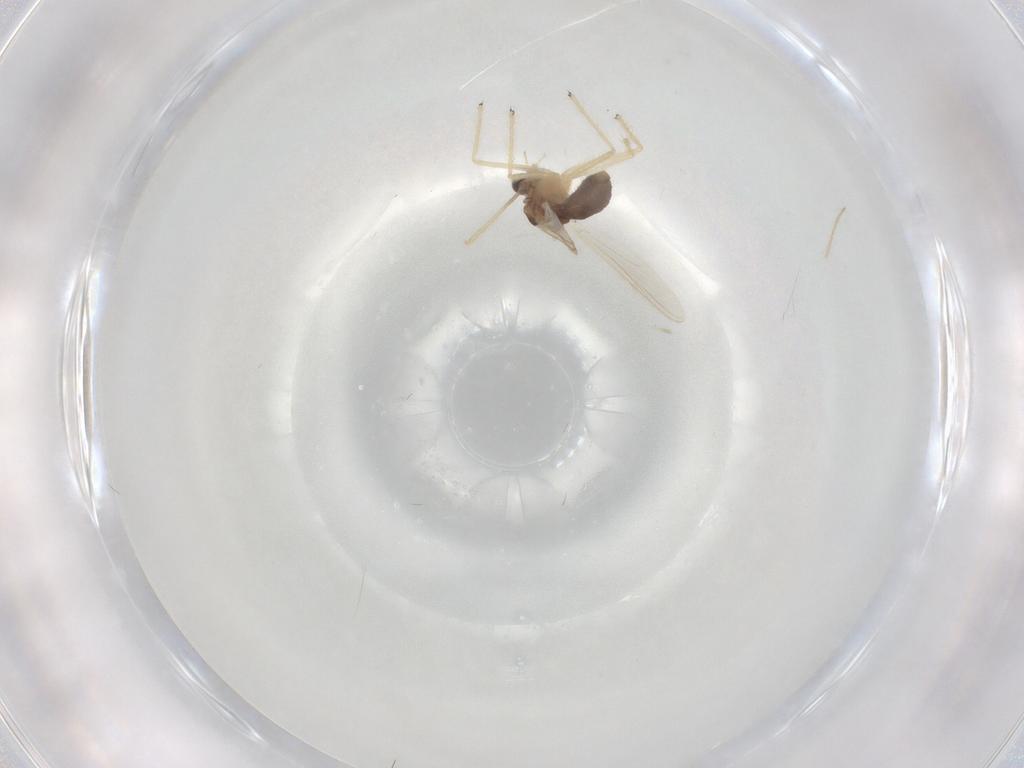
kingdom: Animalia
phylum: Arthropoda
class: Insecta
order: Diptera
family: Chironomidae
